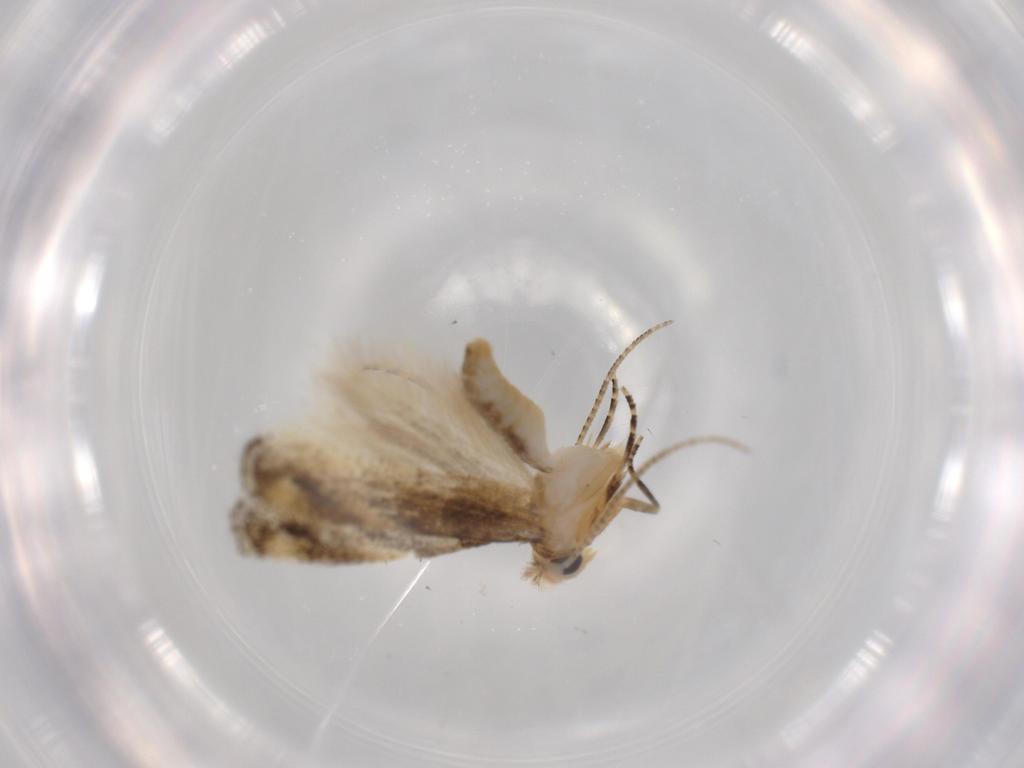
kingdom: Animalia
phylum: Arthropoda
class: Insecta
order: Lepidoptera
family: Bucculatricidae
